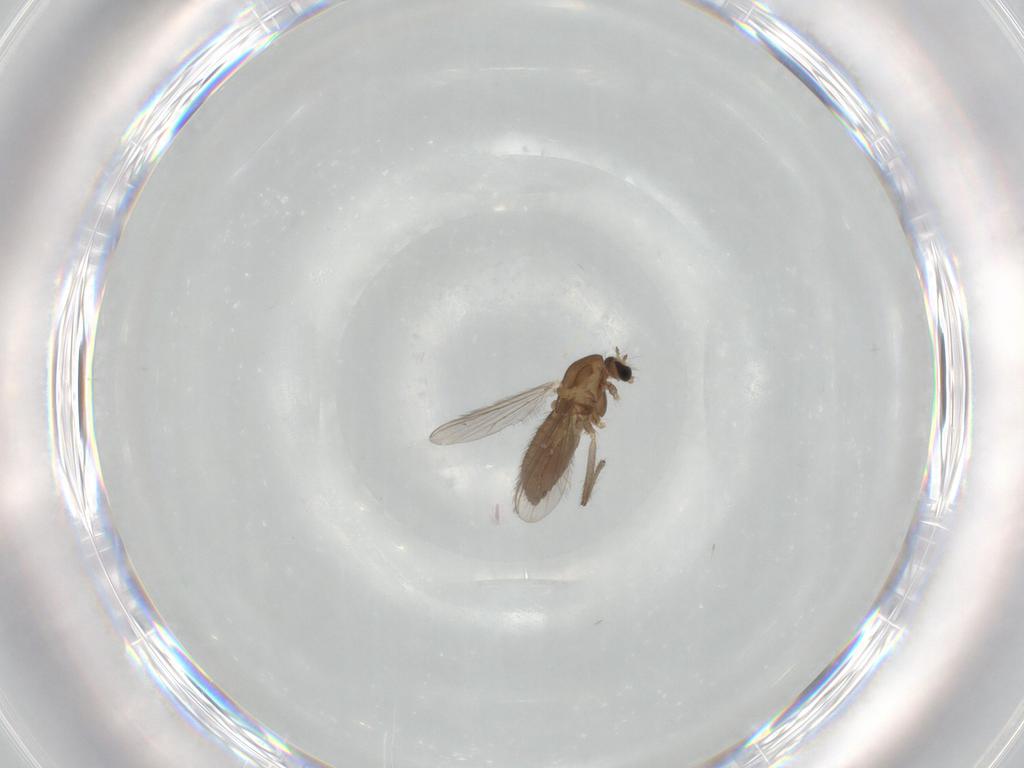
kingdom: Animalia
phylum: Arthropoda
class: Insecta
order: Diptera
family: Chironomidae
